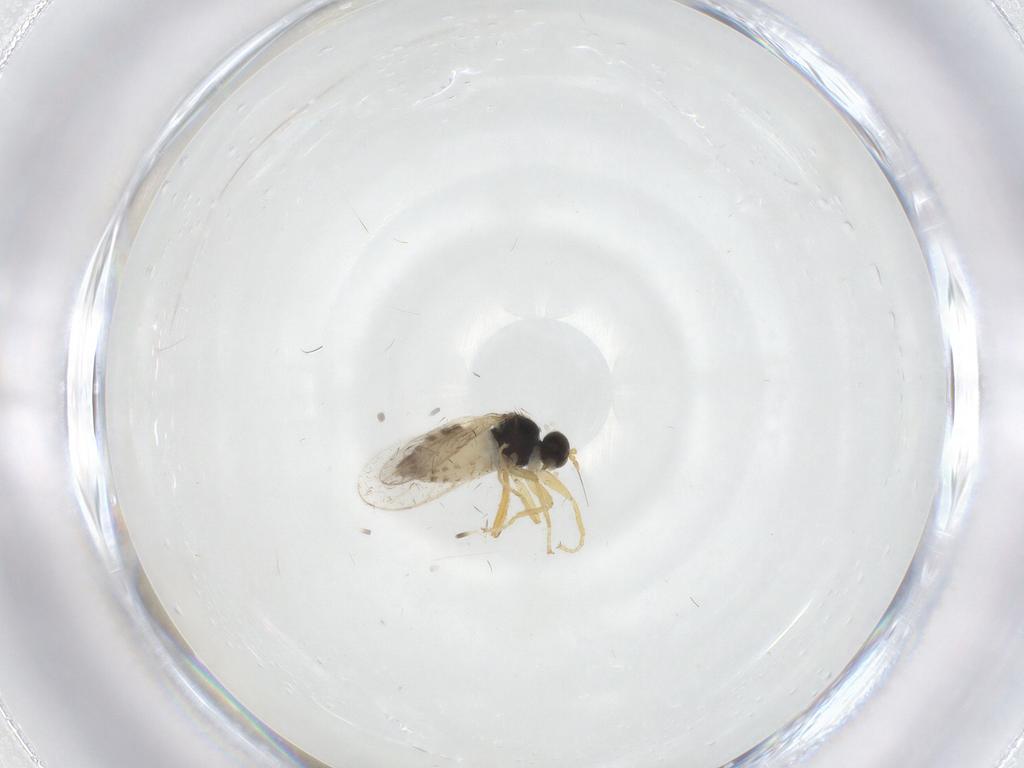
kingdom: Animalia
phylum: Arthropoda
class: Insecta
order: Diptera
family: Hybotidae
